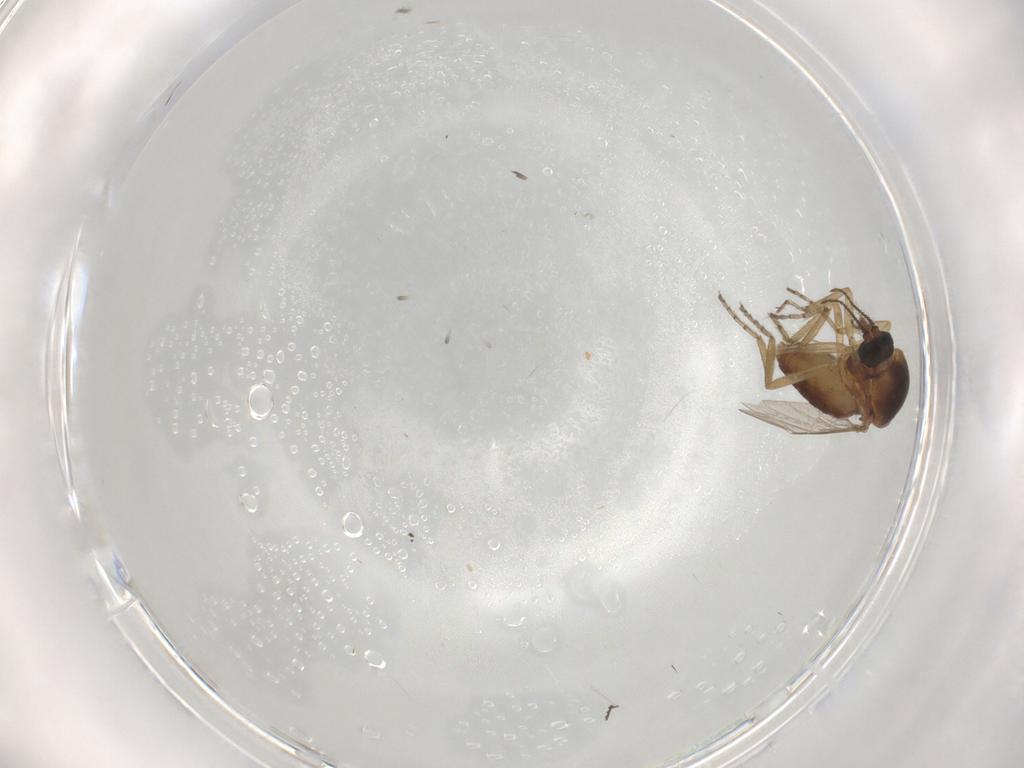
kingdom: Animalia
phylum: Arthropoda
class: Insecta
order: Diptera
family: Ceratopogonidae
